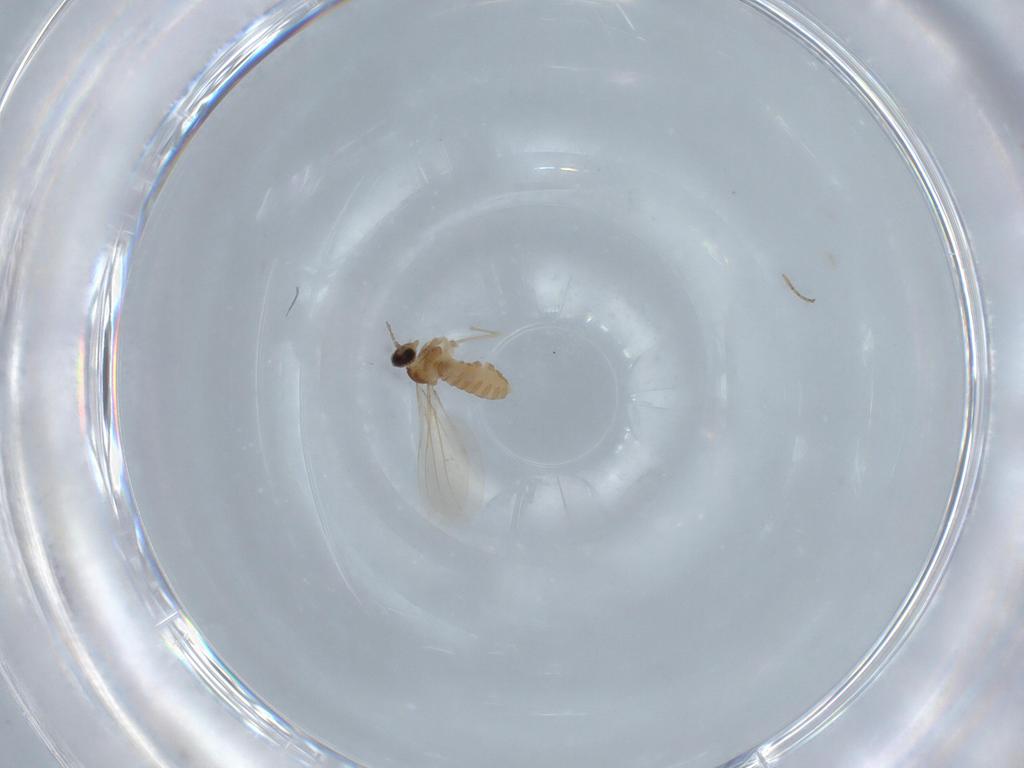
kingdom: Animalia
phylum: Arthropoda
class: Insecta
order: Diptera
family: Cecidomyiidae
